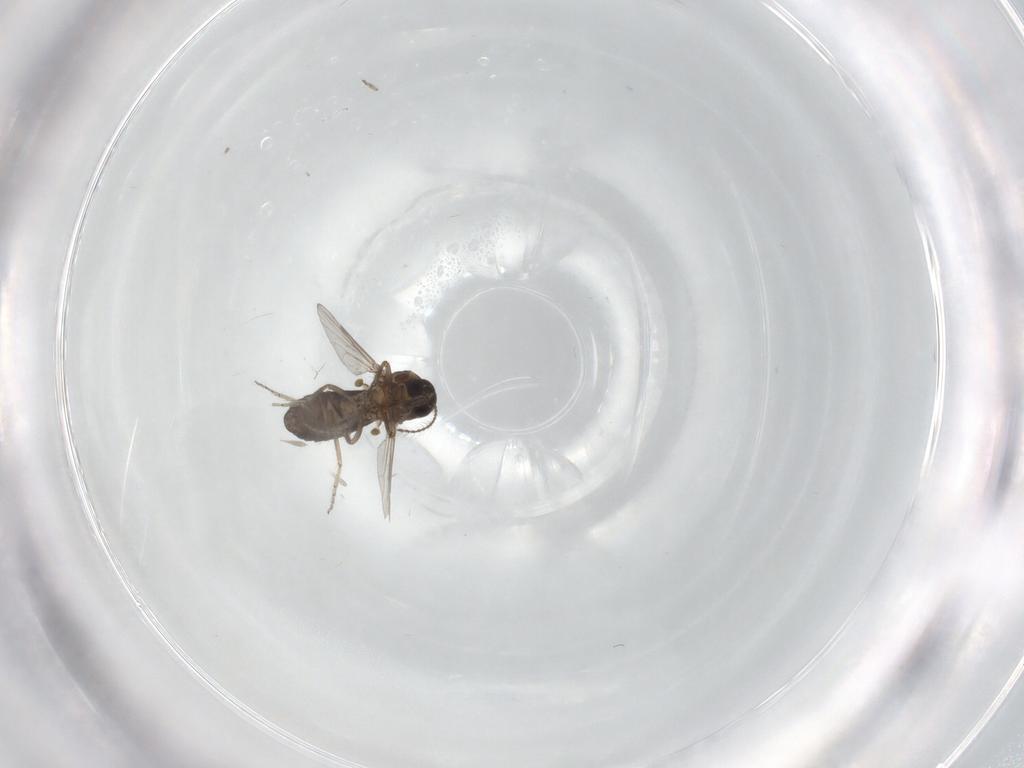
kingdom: Animalia
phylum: Arthropoda
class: Insecta
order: Diptera
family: Ceratopogonidae
